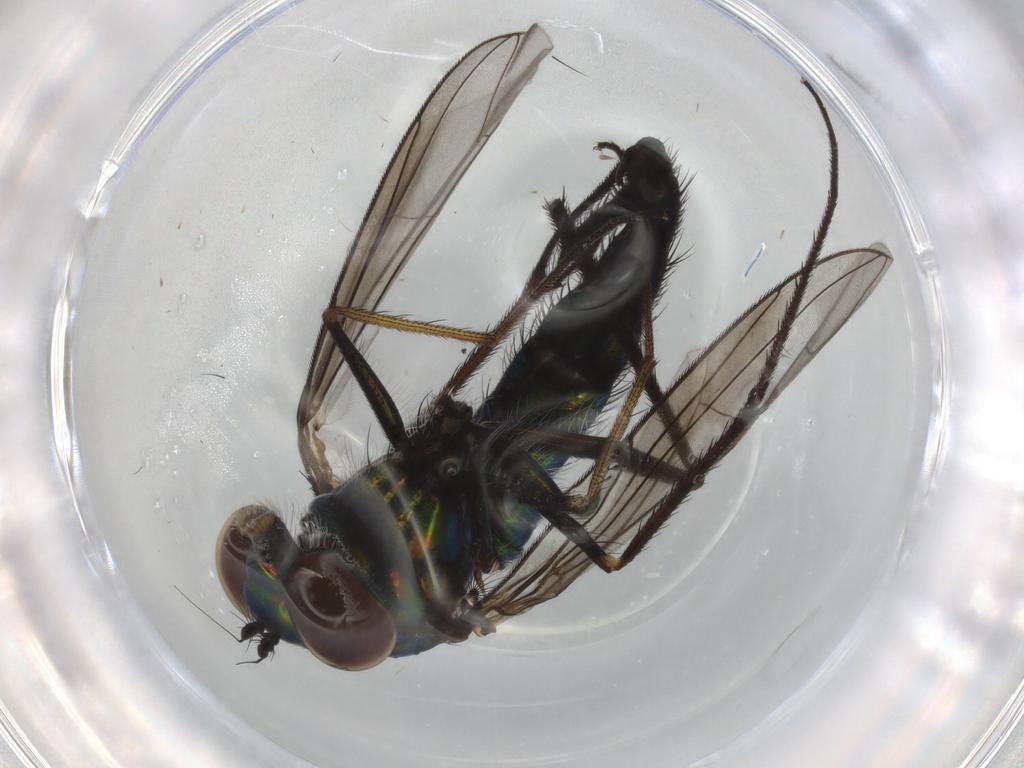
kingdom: Animalia
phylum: Arthropoda
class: Insecta
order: Diptera
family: Dolichopodidae
